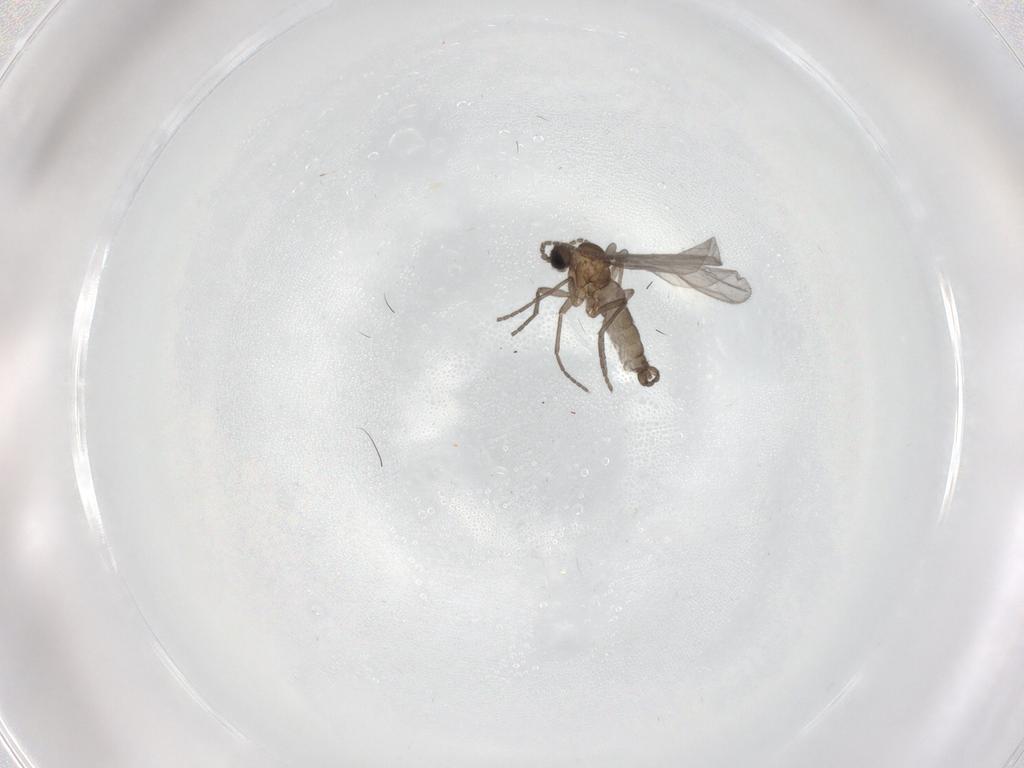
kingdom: Animalia
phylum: Arthropoda
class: Insecta
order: Diptera
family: Sciaridae
